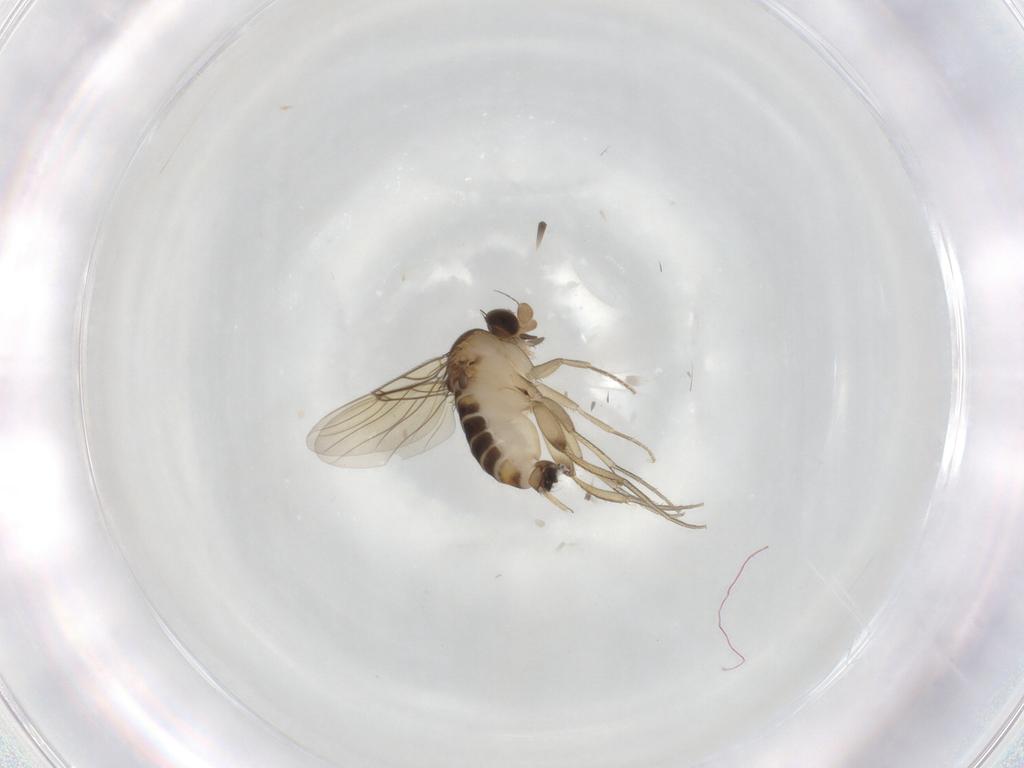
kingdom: Animalia
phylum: Arthropoda
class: Insecta
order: Diptera
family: Phoridae
